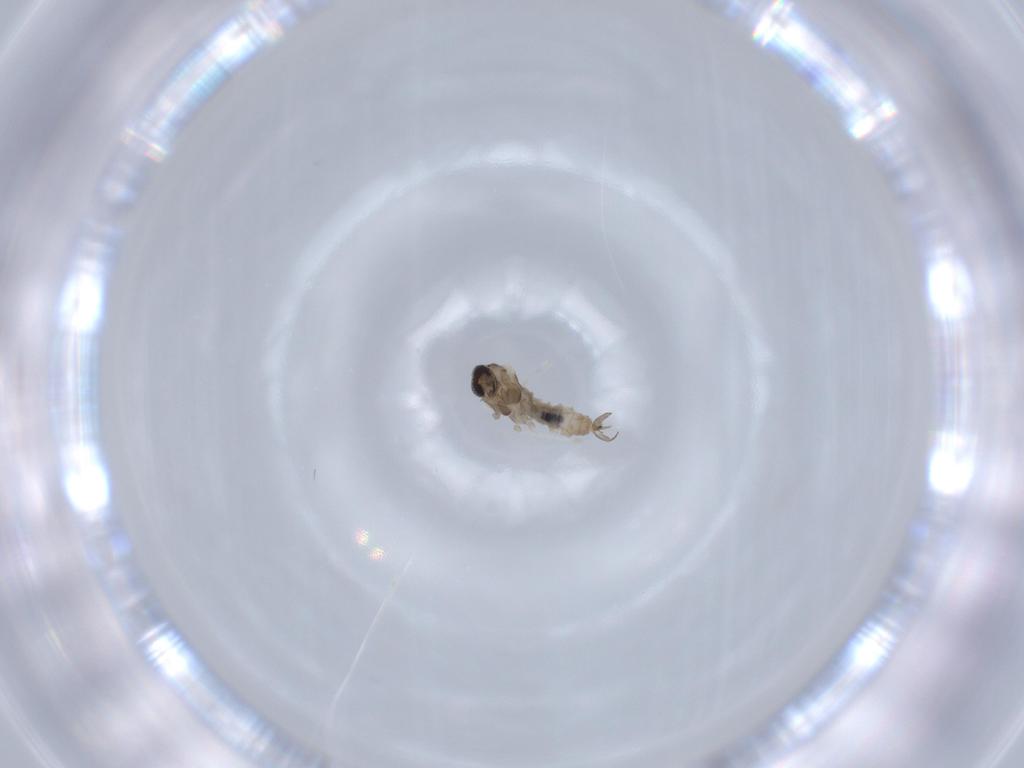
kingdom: Animalia
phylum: Arthropoda
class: Insecta
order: Diptera
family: Cecidomyiidae
